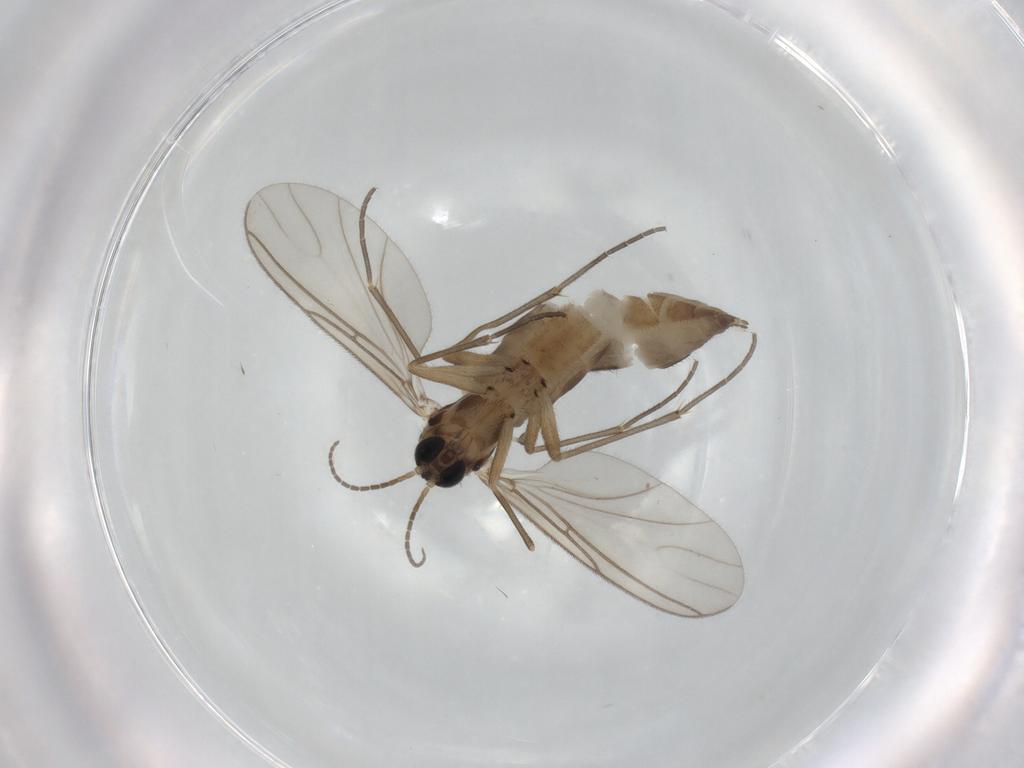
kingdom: Animalia
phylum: Arthropoda
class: Insecta
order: Diptera
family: Sciaridae
